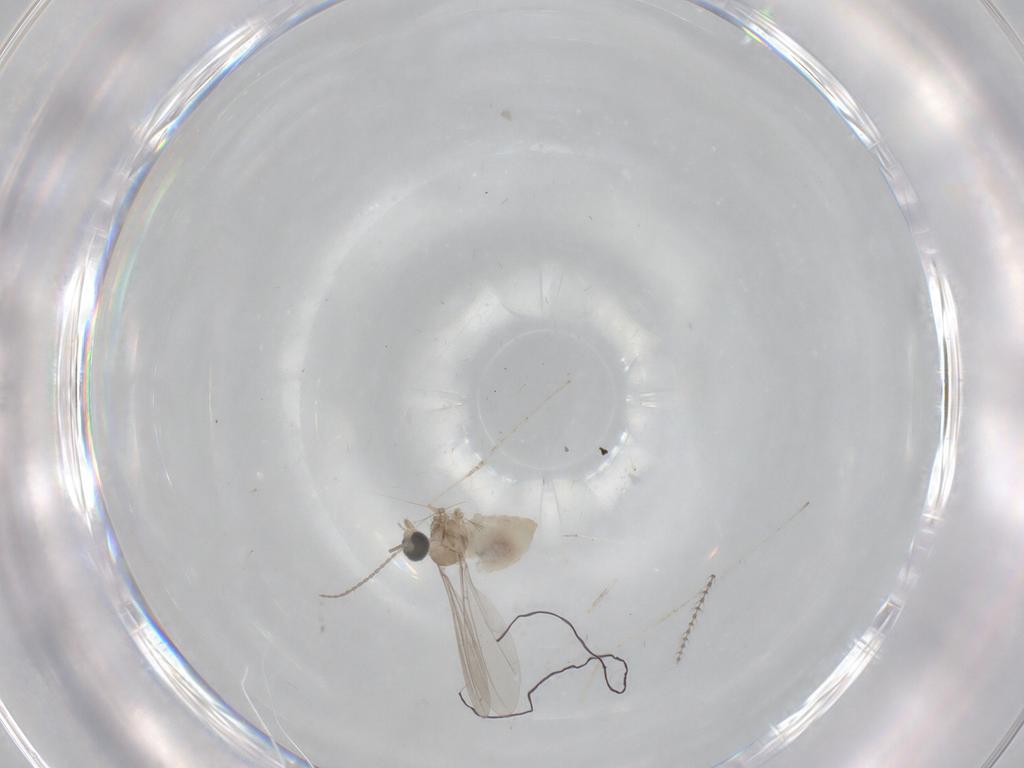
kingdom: Animalia
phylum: Arthropoda
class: Insecta
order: Diptera
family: Cecidomyiidae
